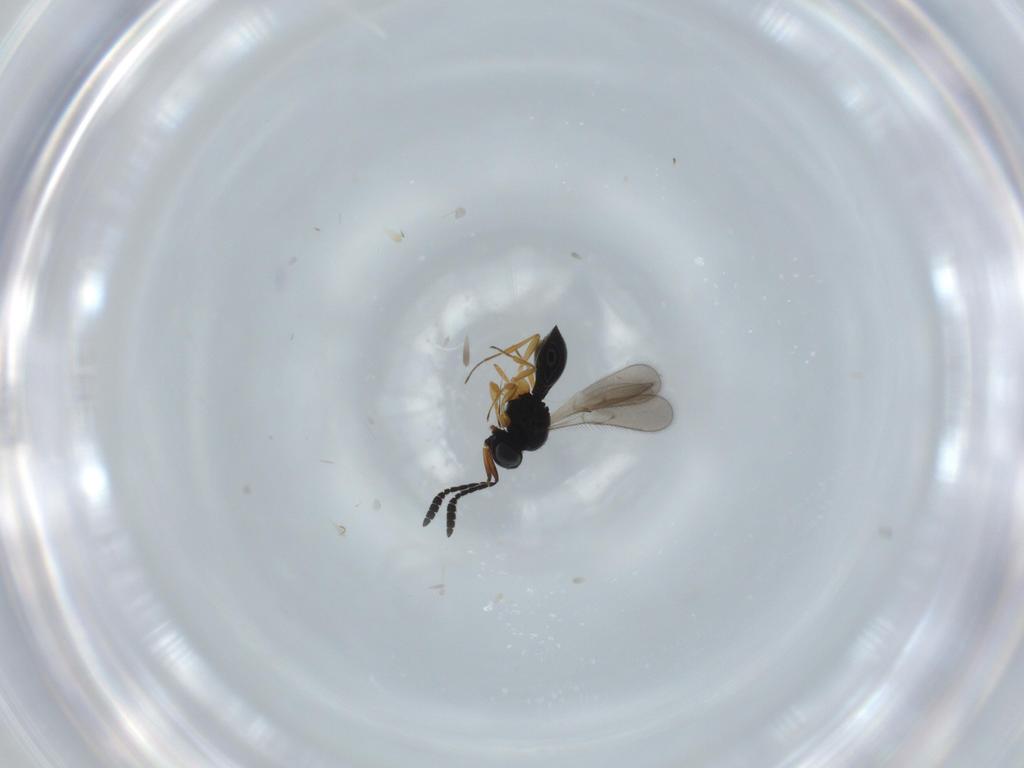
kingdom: Animalia
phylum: Arthropoda
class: Insecta
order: Hymenoptera
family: Scelionidae
